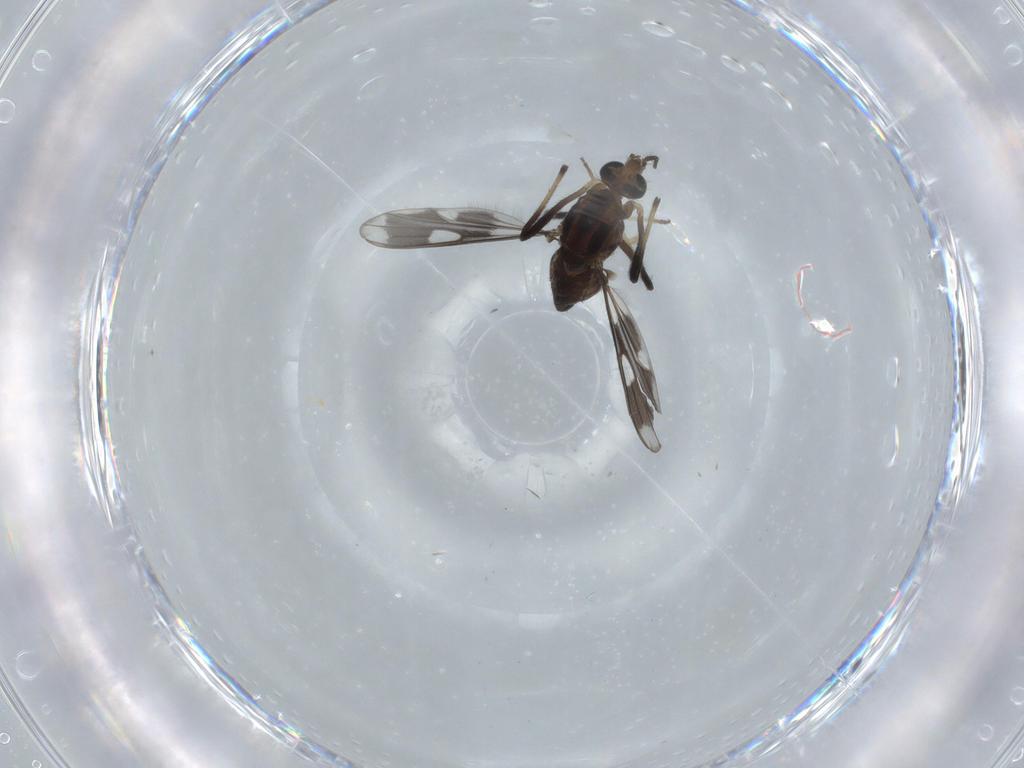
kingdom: Animalia
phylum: Arthropoda
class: Insecta
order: Diptera
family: Chironomidae
